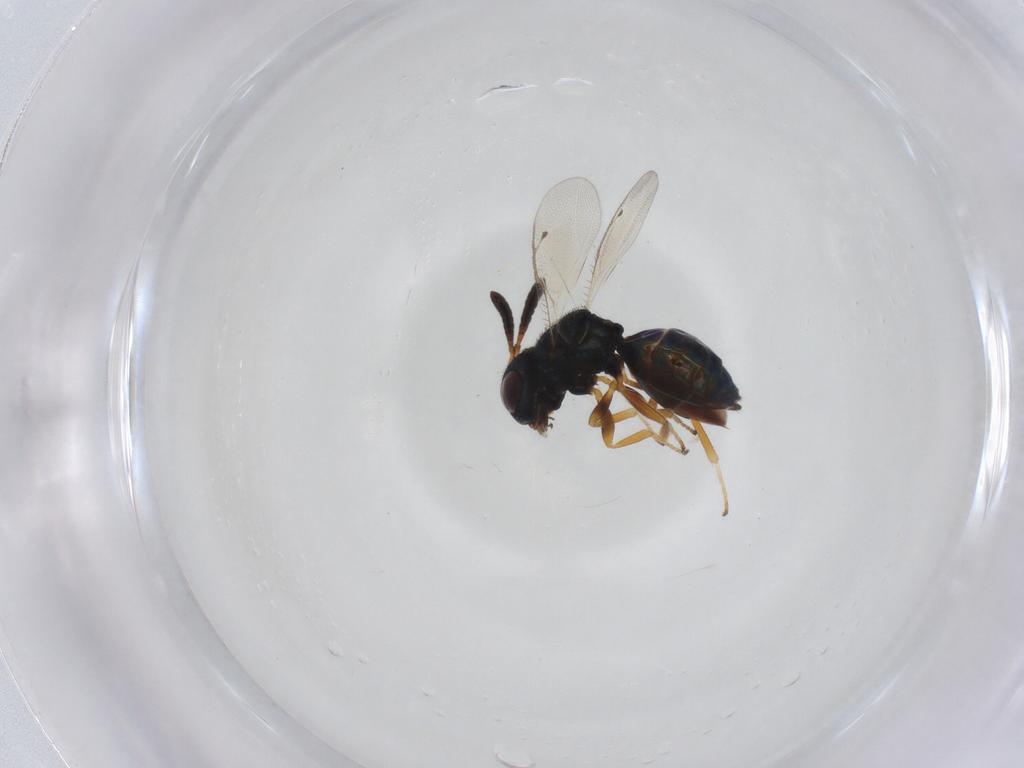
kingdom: Animalia
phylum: Arthropoda
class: Insecta
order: Hymenoptera
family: Pteromalidae
